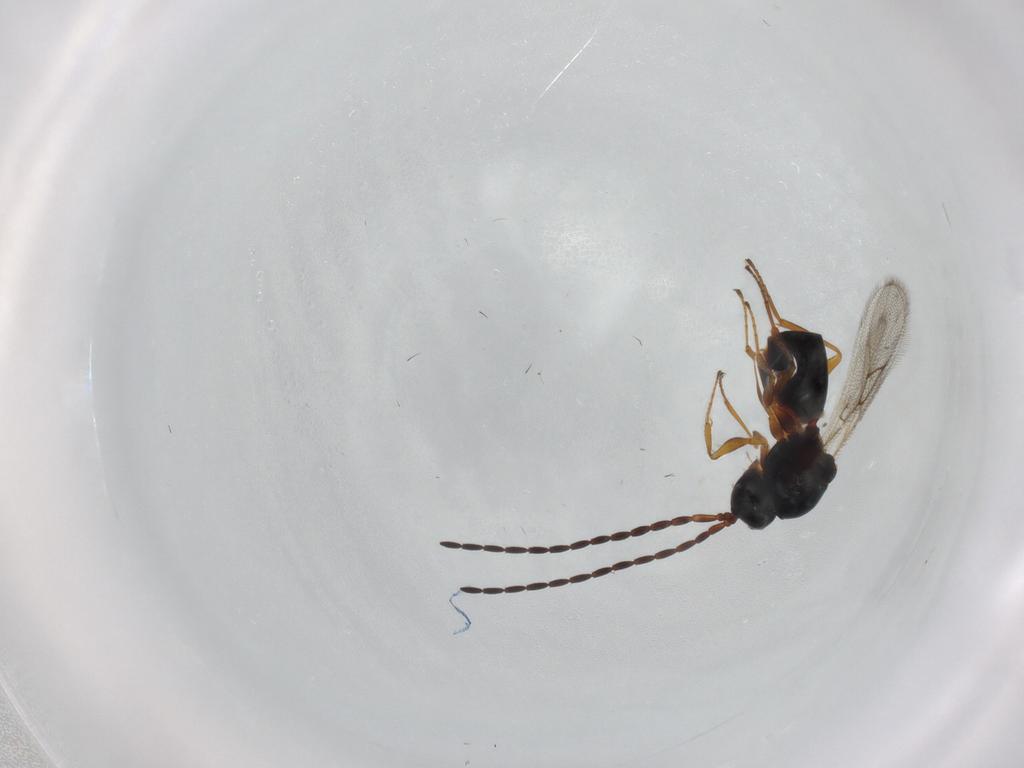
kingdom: Animalia
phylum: Arthropoda
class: Insecta
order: Hymenoptera
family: Figitidae
